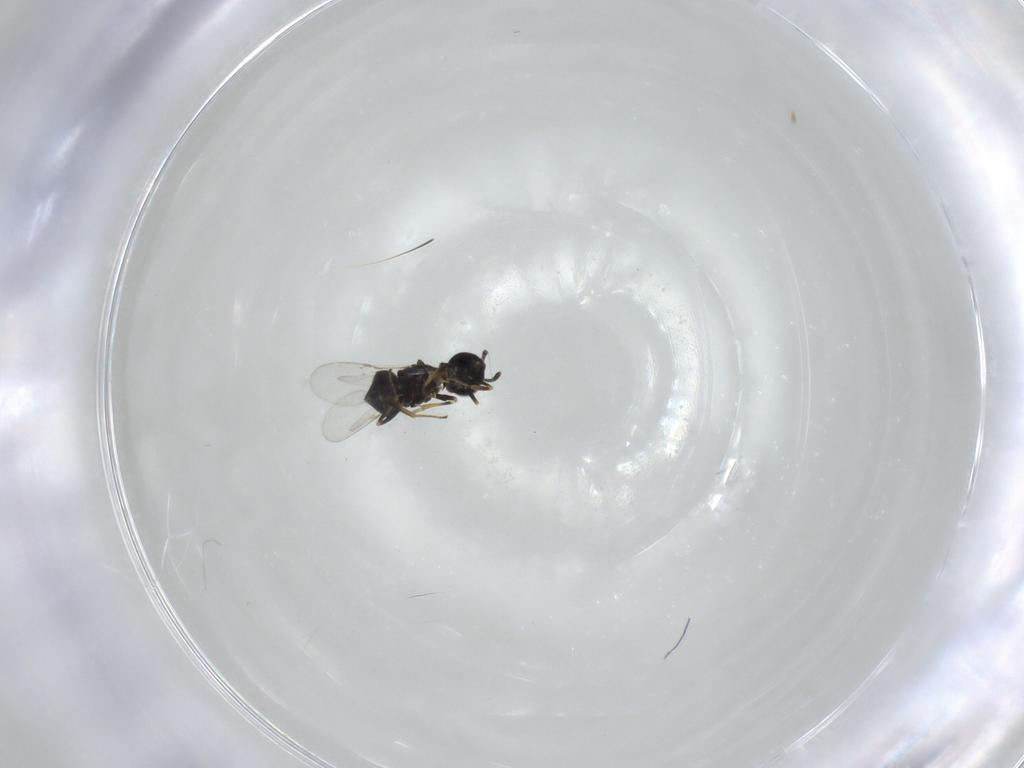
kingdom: Animalia
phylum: Arthropoda
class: Insecta
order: Hymenoptera
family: Encyrtidae
